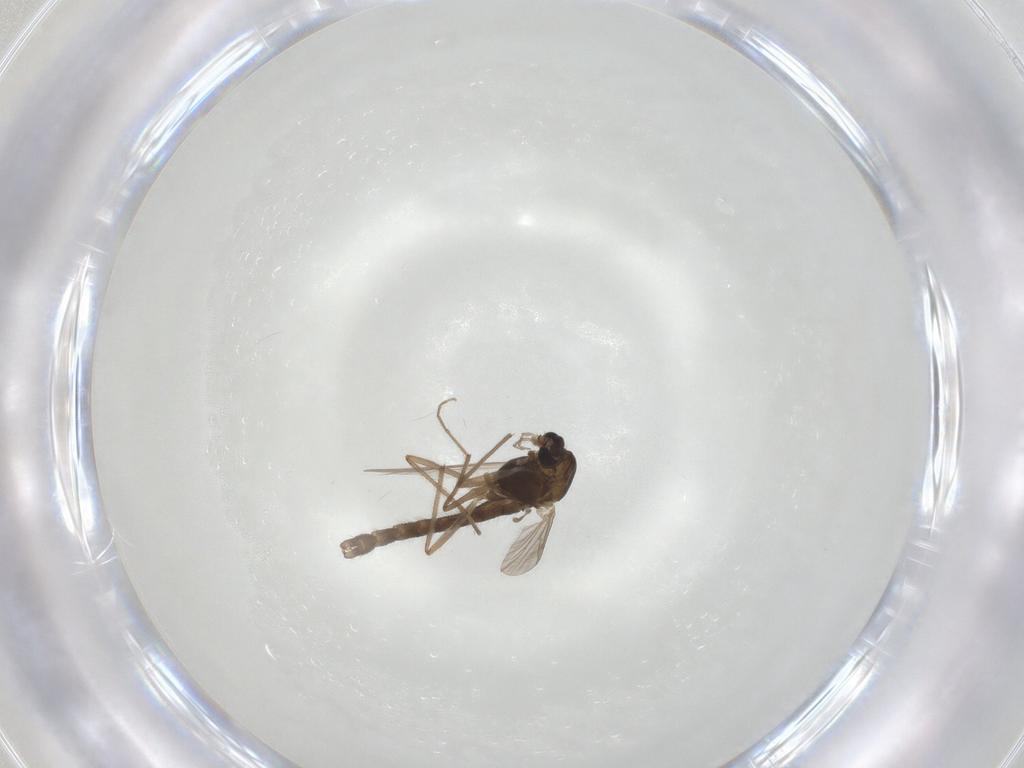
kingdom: Animalia
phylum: Arthropoda
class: Insecta
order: Diptera
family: Chironomidae
